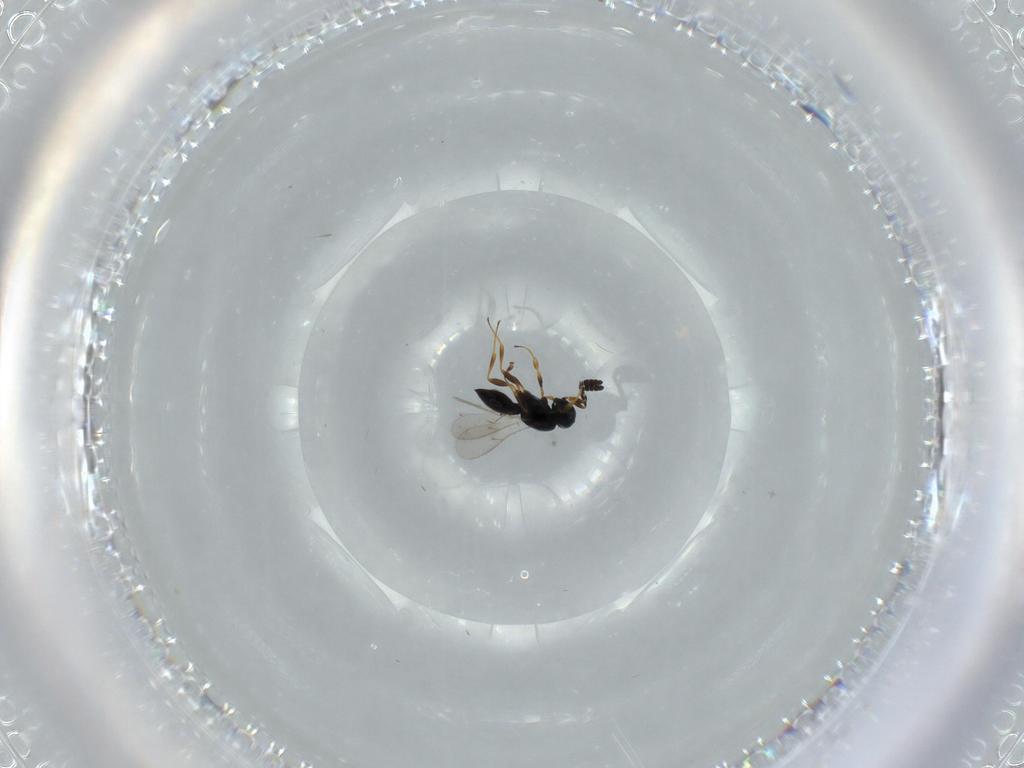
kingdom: Animalia
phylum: Arthropoda
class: Insecta
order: Hymenoptera
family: Scelionidae
